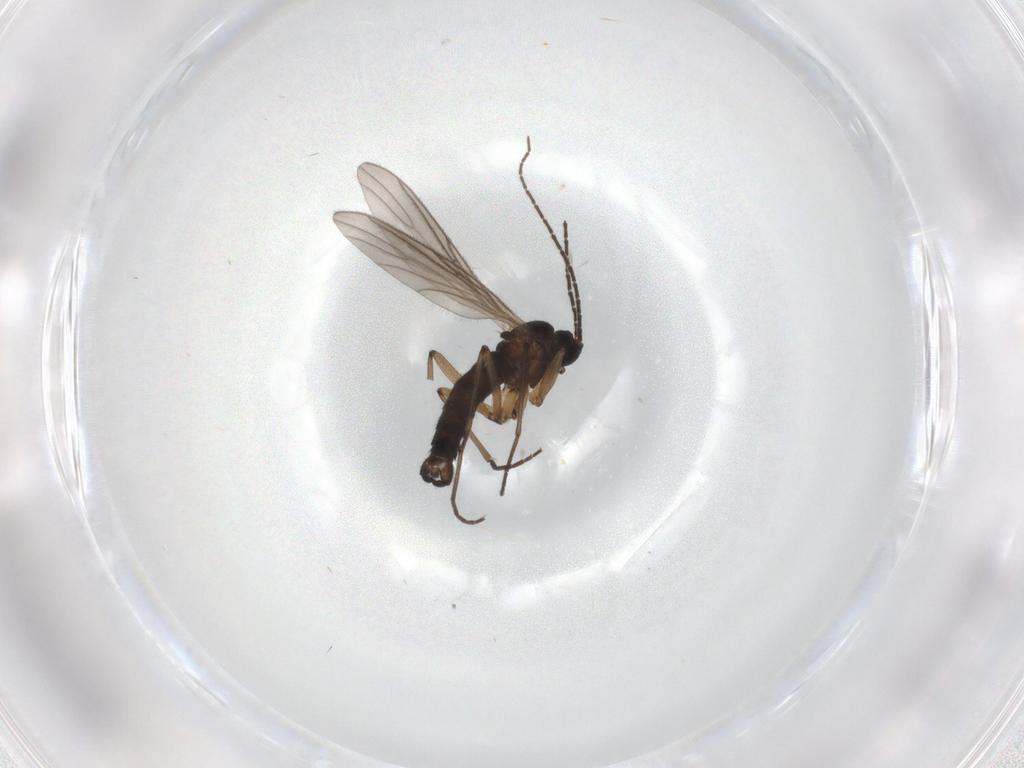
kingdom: Animalia
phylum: Arthropoda
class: Insecta
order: Diptera
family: Sciaridae
